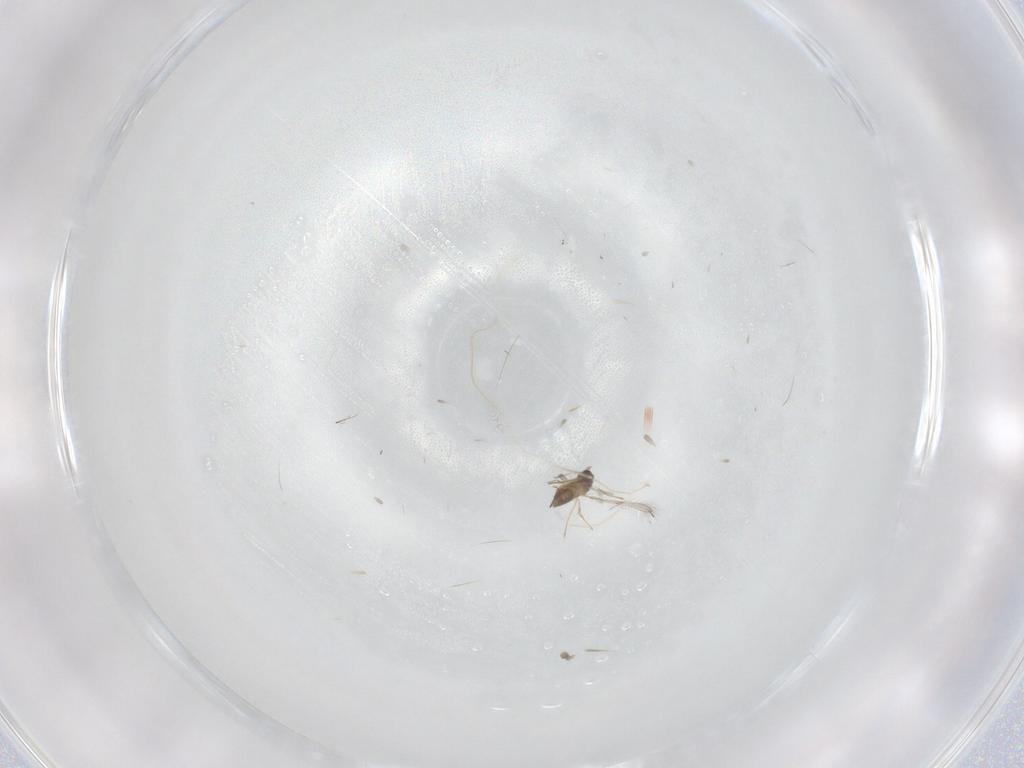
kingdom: Animalia
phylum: Arthropoda
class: Insecta
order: Hymenoptera
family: Mymaridae
